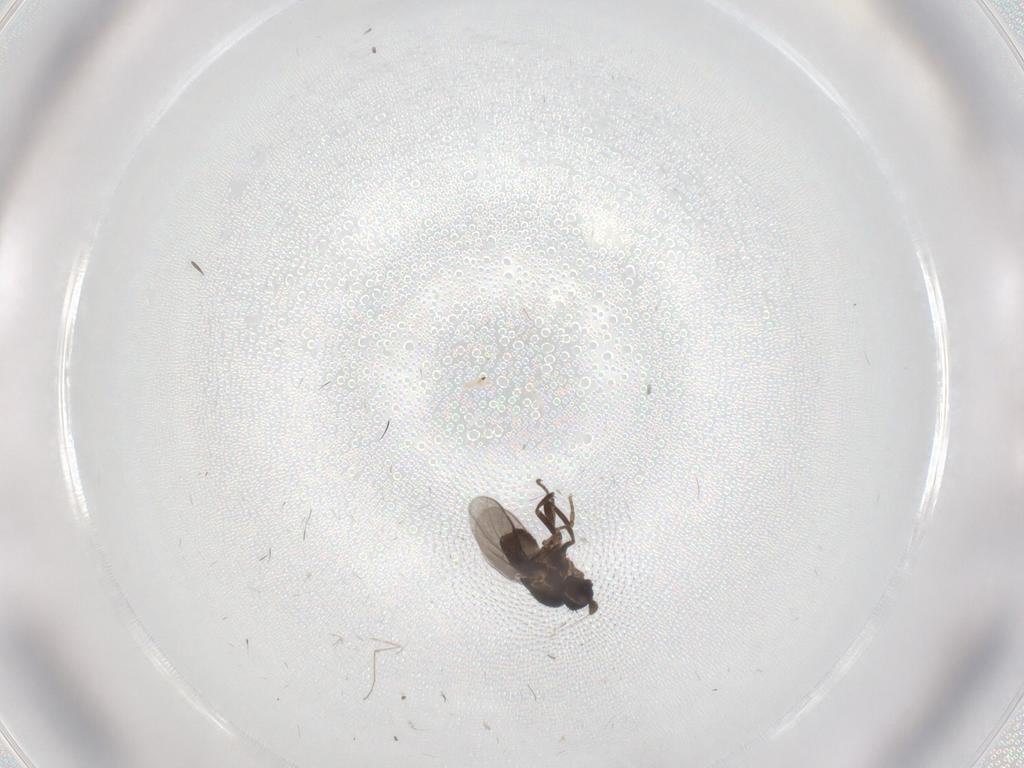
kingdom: Animalia
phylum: Arthropoda
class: Insecta
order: Diptera
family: Sphaeroceridae
